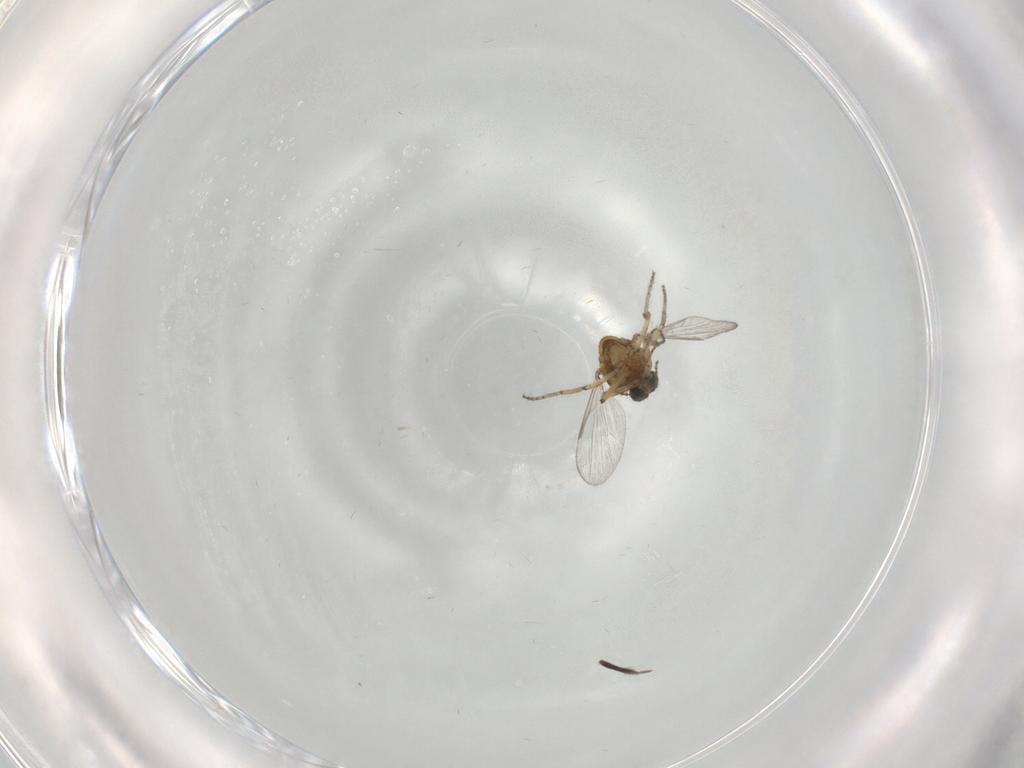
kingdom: Animalia
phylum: Arthropoda
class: Insecta
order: Diptera
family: Ceratopogonidae
